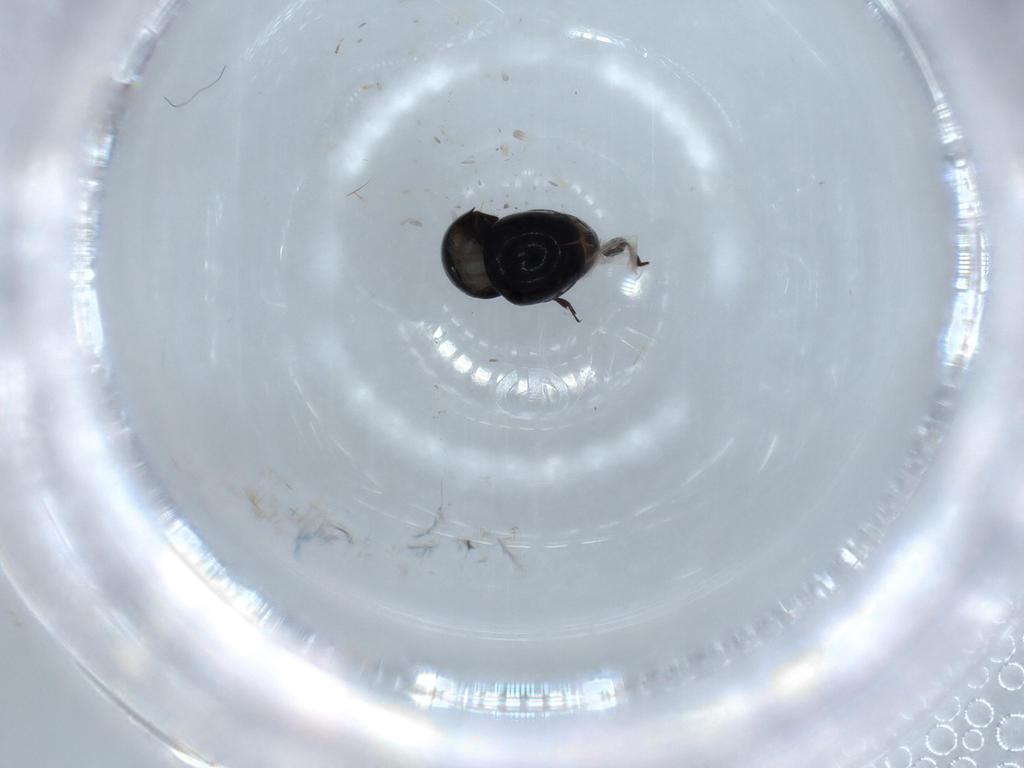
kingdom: Animalia
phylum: Arthropoda
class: Insecta
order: Coleoptera
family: Cybocephalidae
